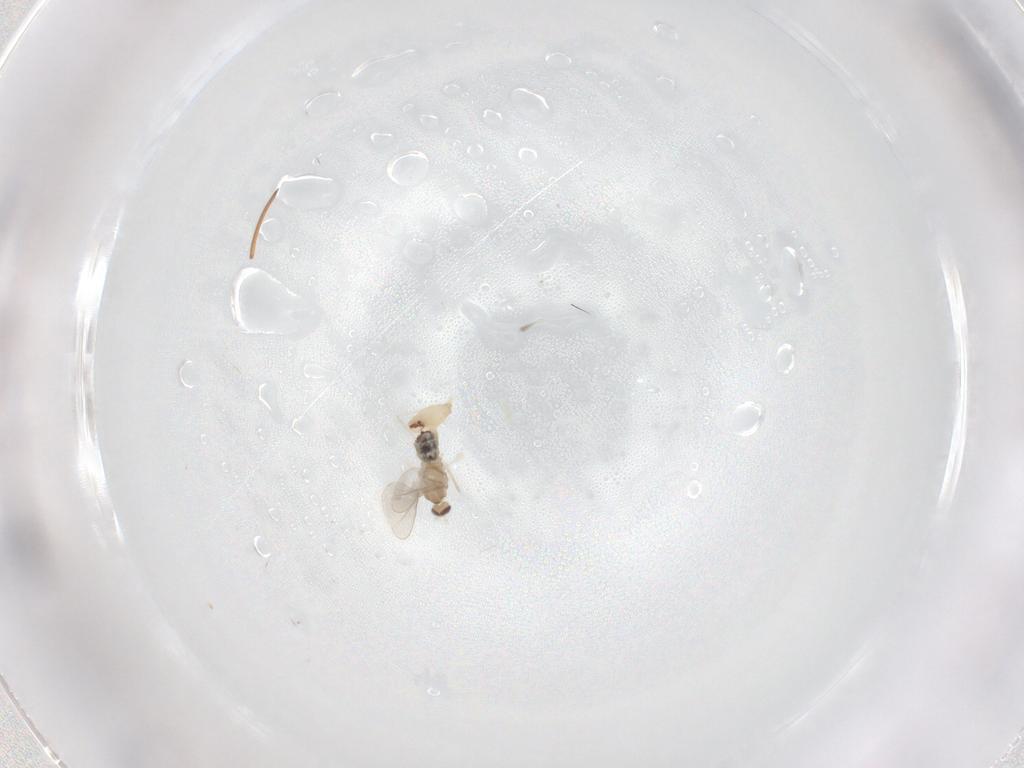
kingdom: Animalia
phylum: Arthropoda
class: Insecta
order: Diptera
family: Cecidomyiidae
